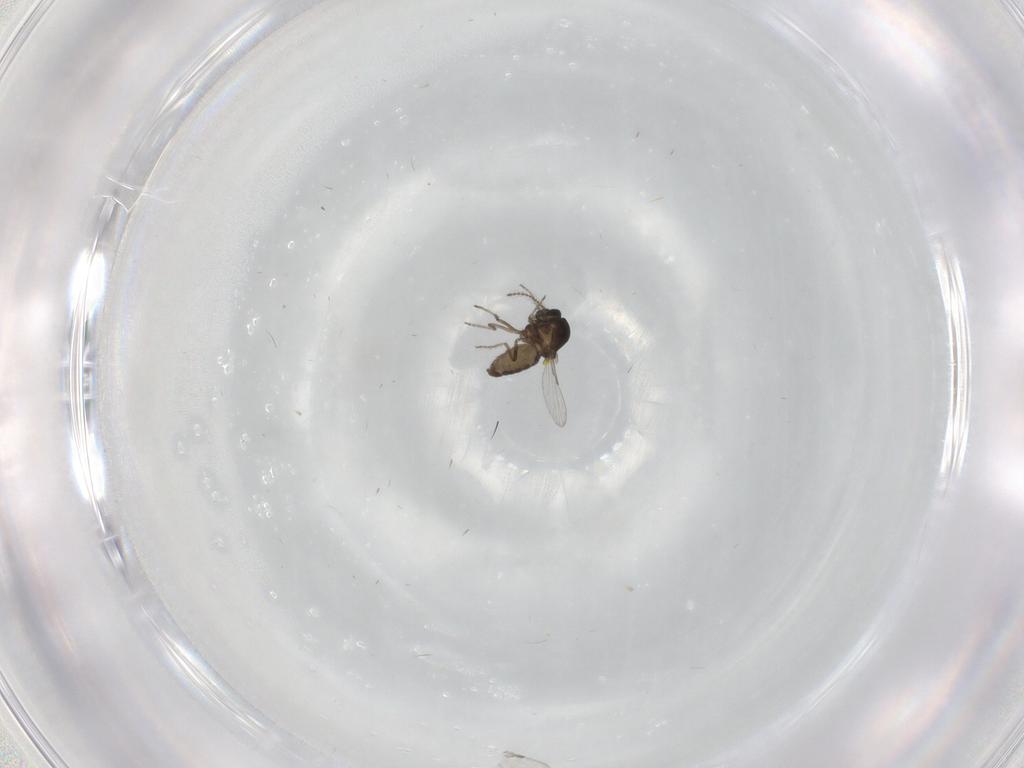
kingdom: Animalia
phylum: Arthropoda
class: Insecta
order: Diptera
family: Ceratopogonidae
